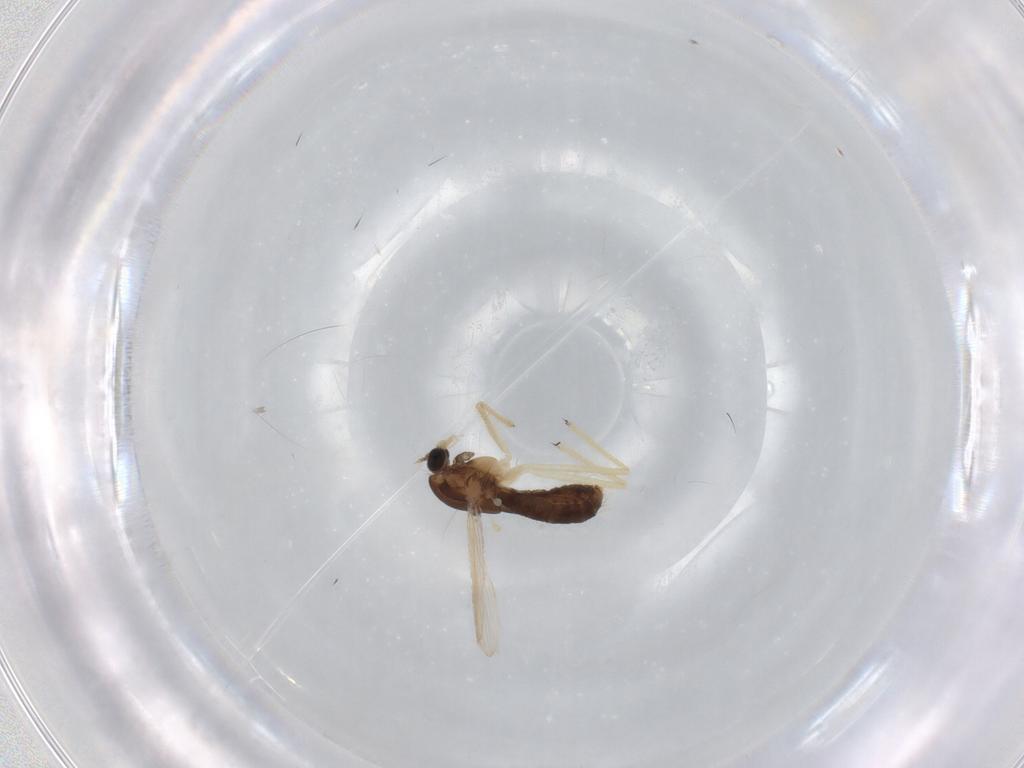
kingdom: Animalia
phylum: Arthropoda
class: Insecta
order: Diptera
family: Chironomidae
